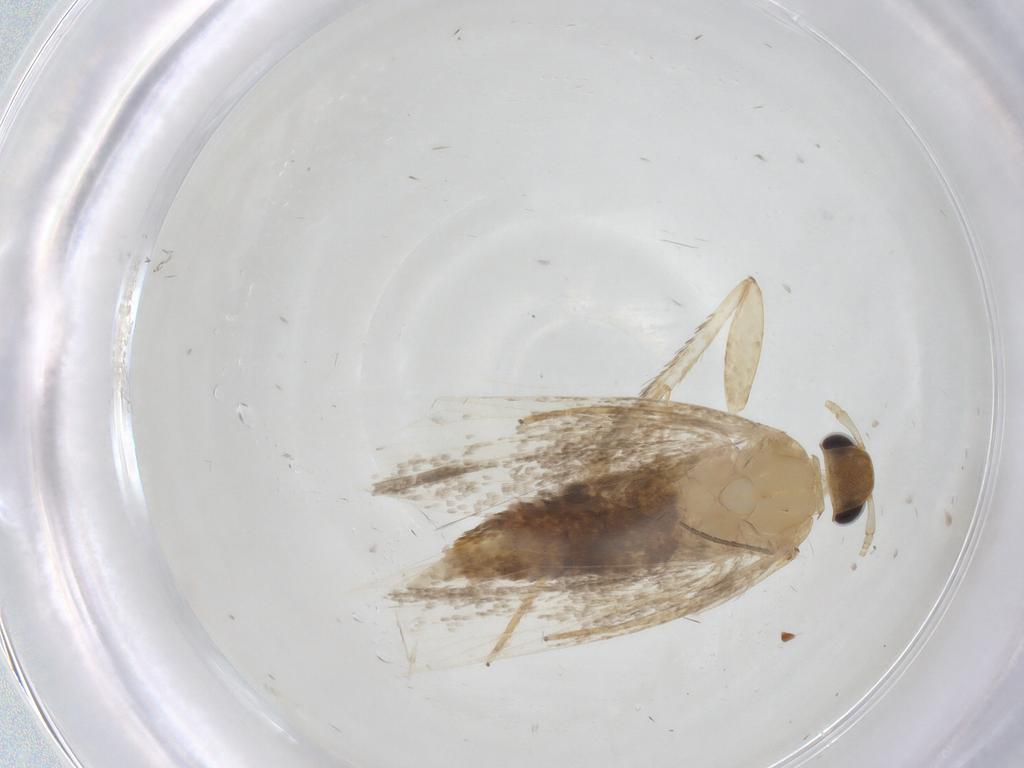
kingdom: Animalia
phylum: Arthropoda
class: Insecta
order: Lepidoptera
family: Lecithoceridae
